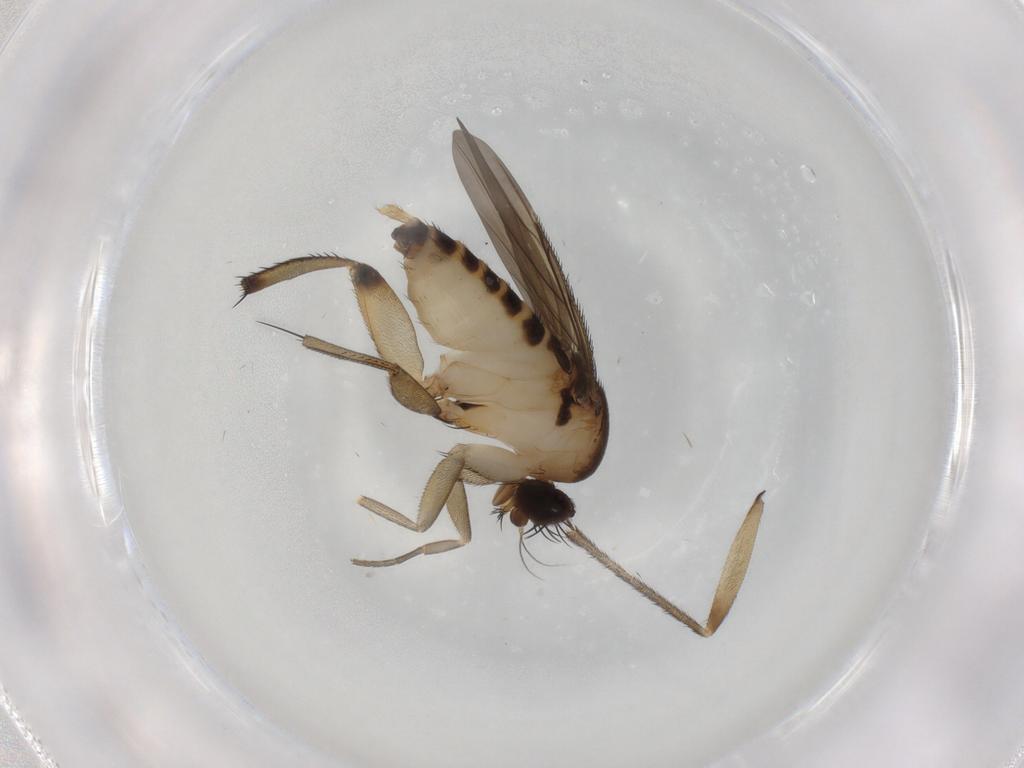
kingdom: Animalia
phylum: Arthropoda
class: Insecta
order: Diptera
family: Phoridae
